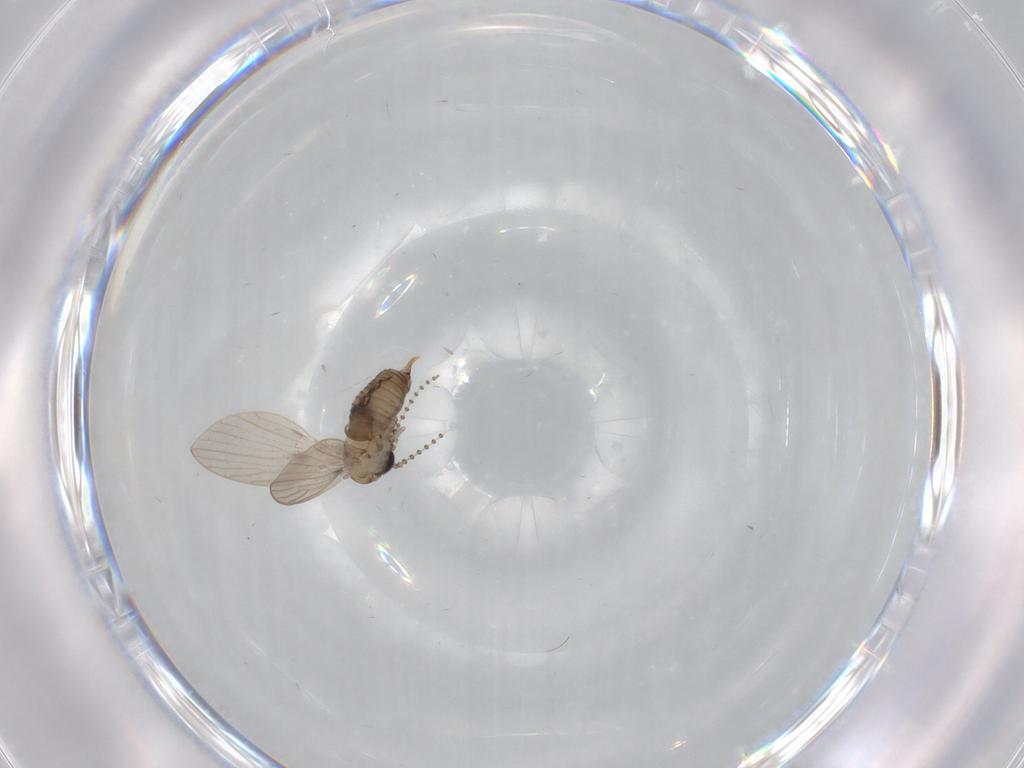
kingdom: Animalia
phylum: Arthropoda
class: Insecta
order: Diptera
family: Psychodidae
